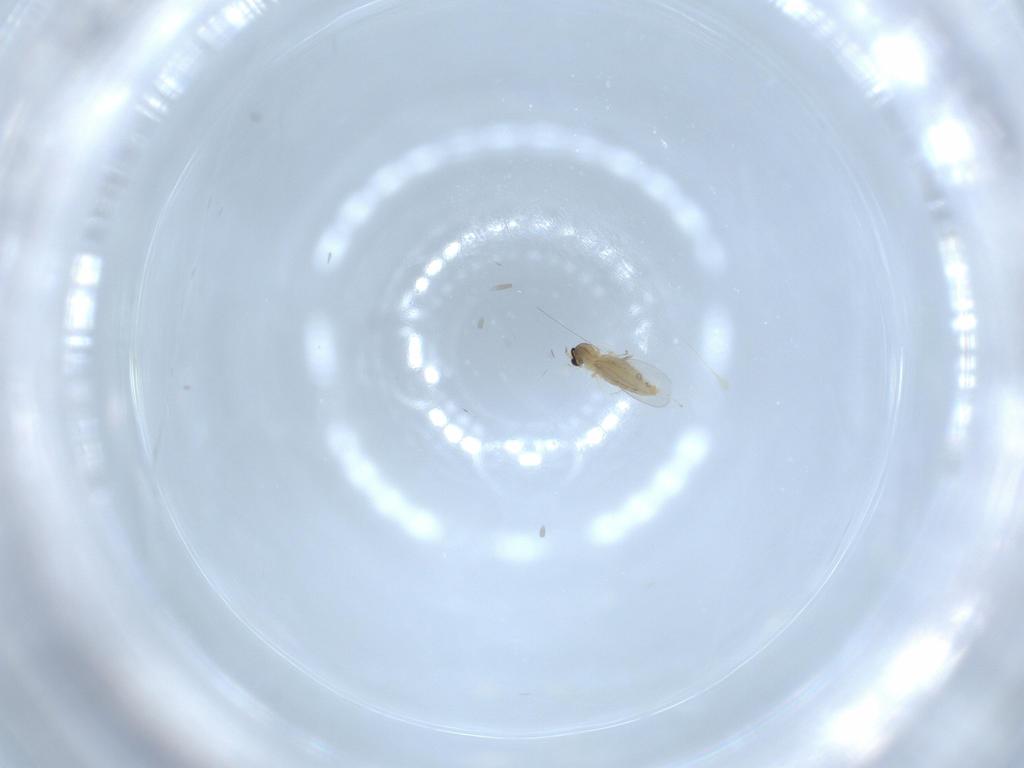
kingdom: Animalia
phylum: Arthropoda
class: Insecta
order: Diptera
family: Cecidomyiidae
